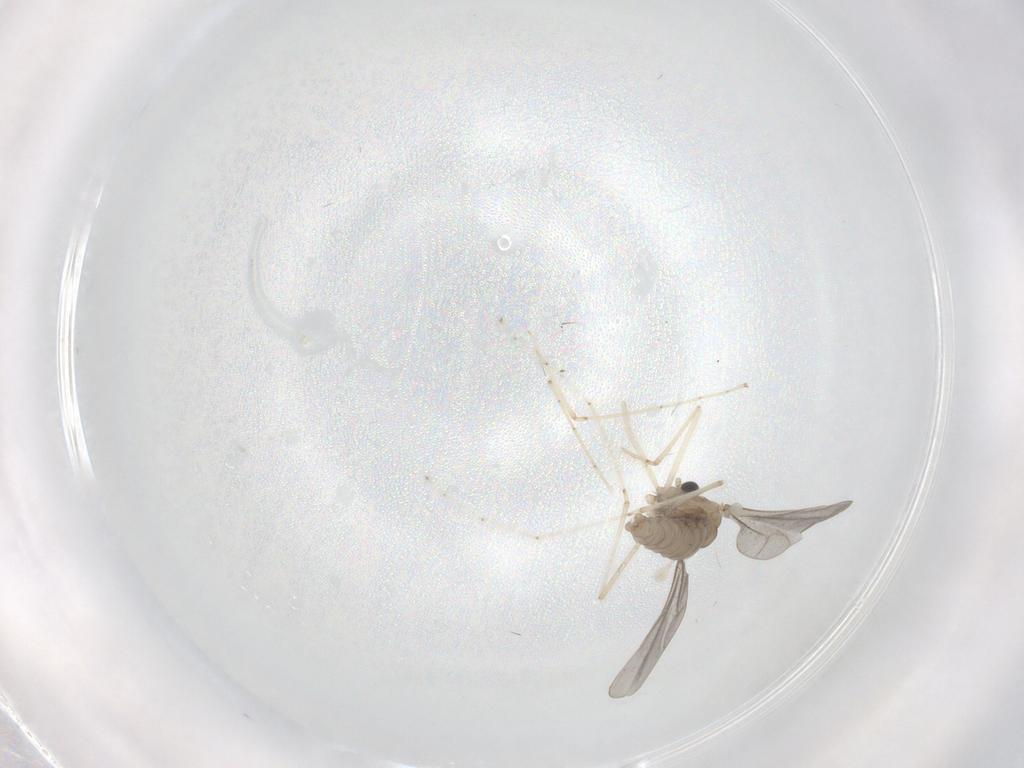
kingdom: Animalia
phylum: Arthropoda
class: Insecta
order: Diptera
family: Cecidomyiidae
